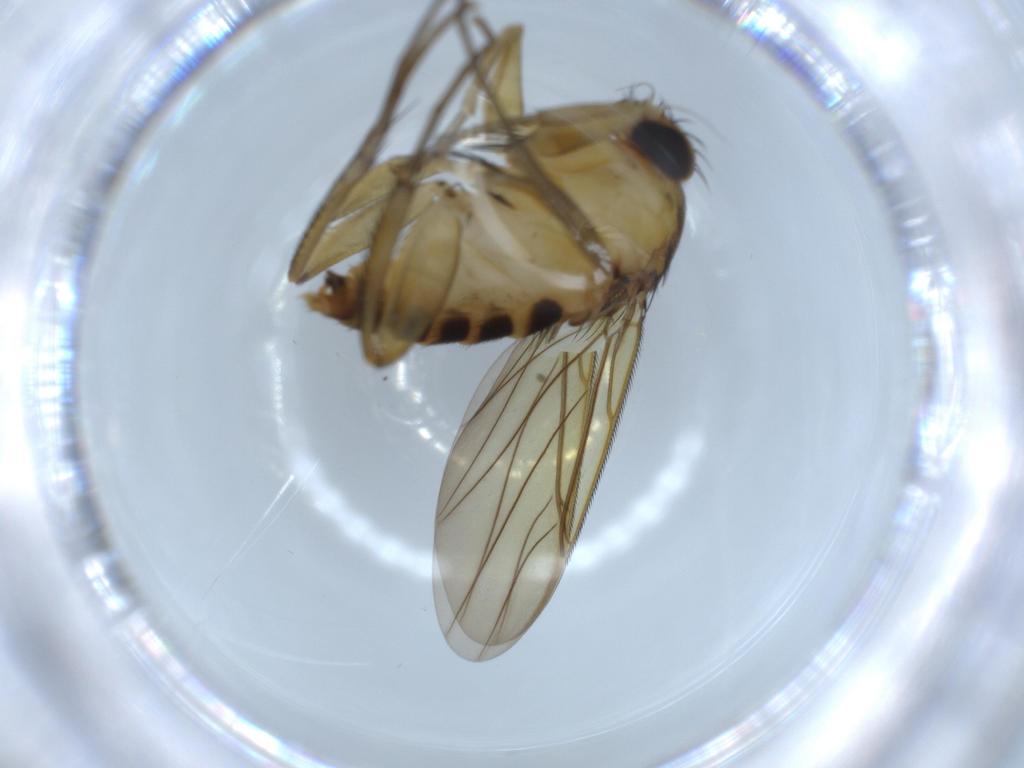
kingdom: Animalia
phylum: Arthropoda
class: Insecta
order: Diptera
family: Sciaridae
